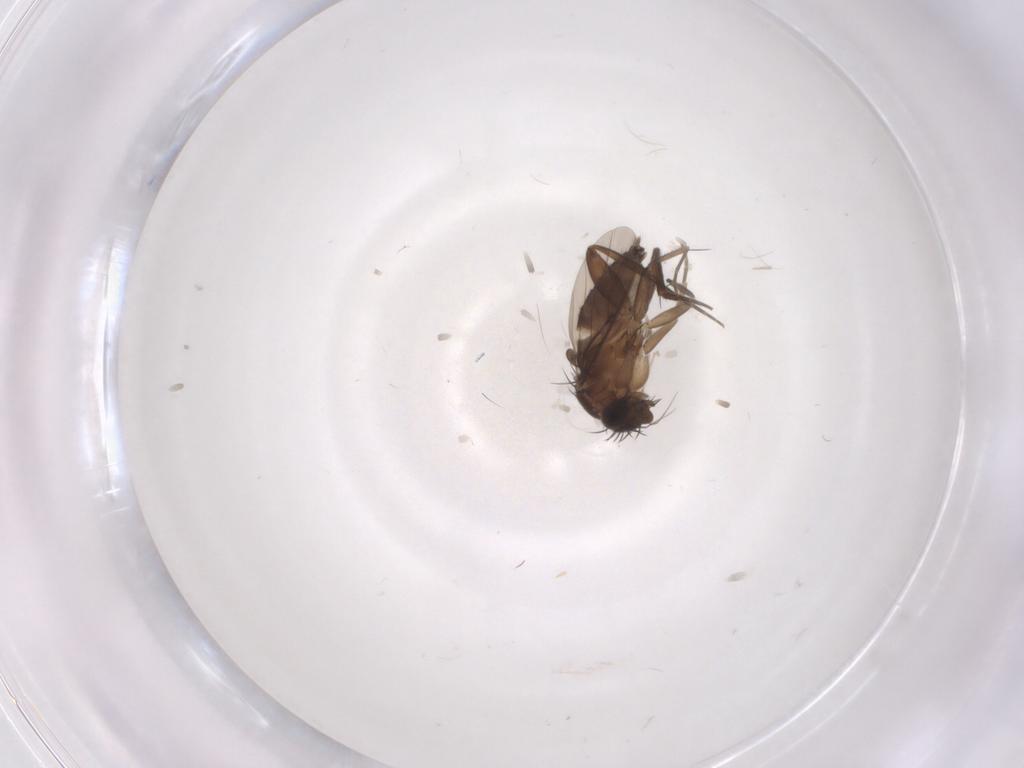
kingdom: Animalia
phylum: Arthropoda
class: Insecta
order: Diptera
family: Phoridae
